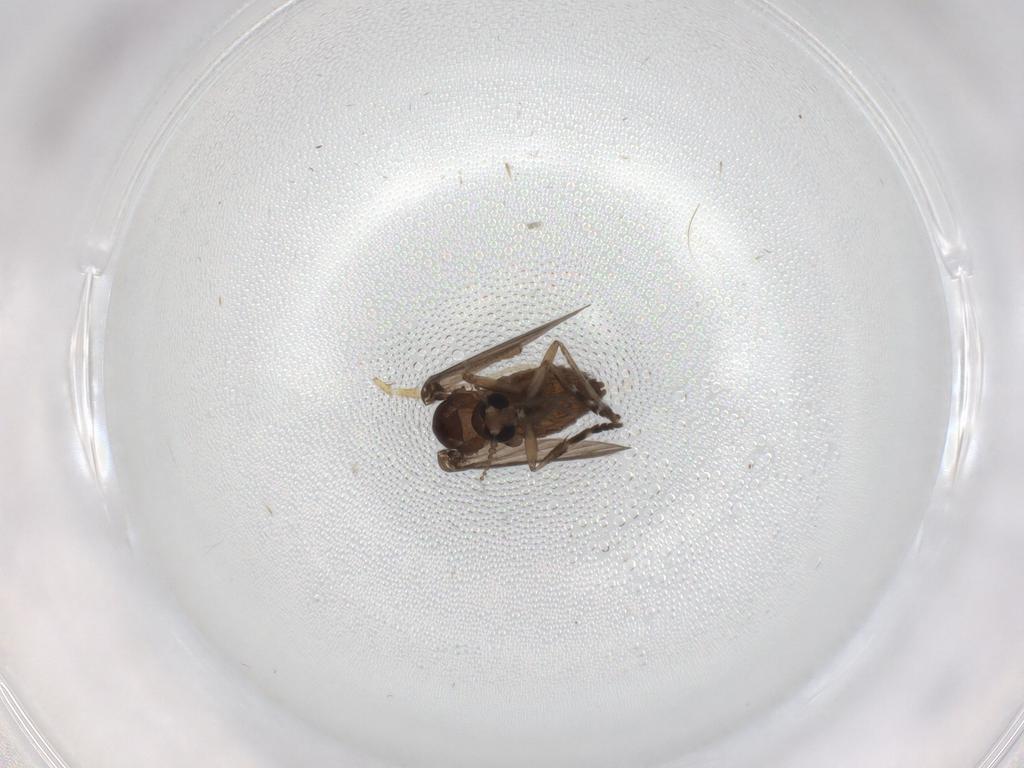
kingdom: Animalia
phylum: Arthropoda
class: Insecta
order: Diptera
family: Psychodidae
